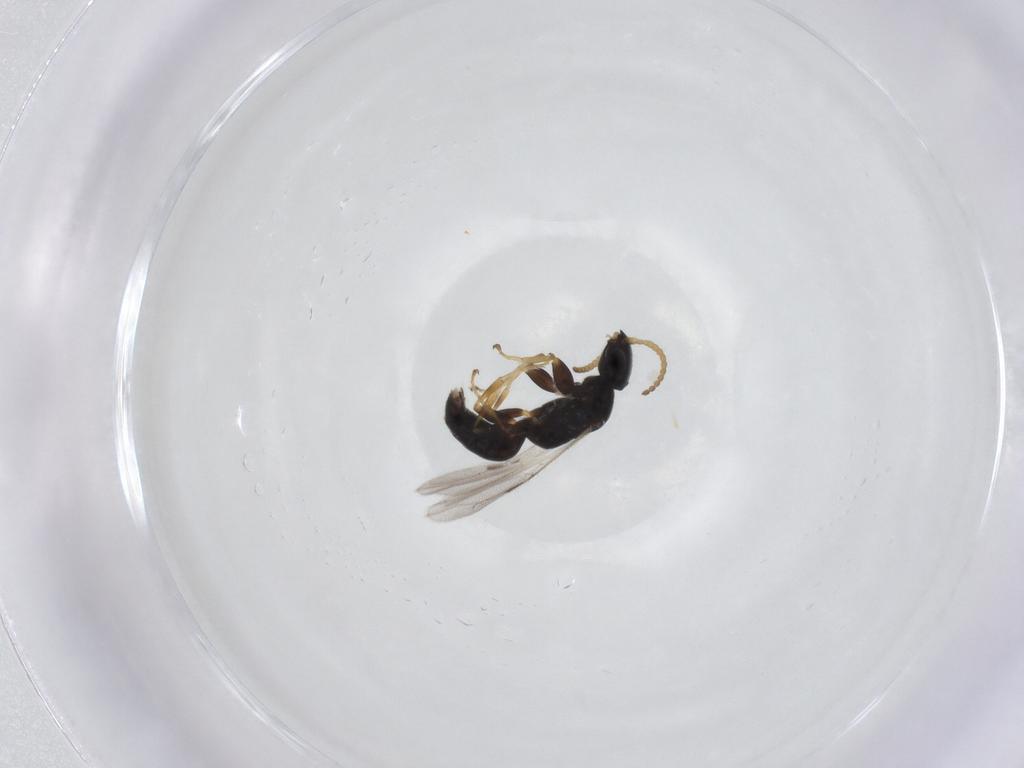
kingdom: Animalia
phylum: Arthropoda
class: Insecta
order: Hymenoptera
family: Bethylidae
